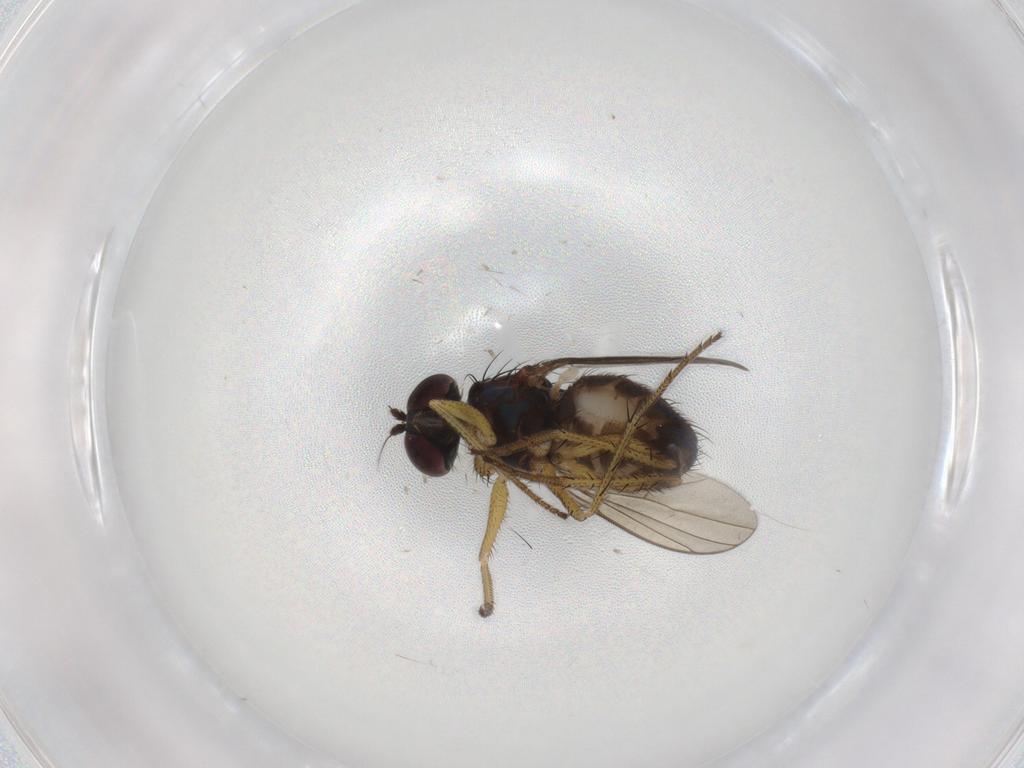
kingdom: Animalia
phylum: Arthropoda
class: Insecta
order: Diptera
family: Dolichopodidae
